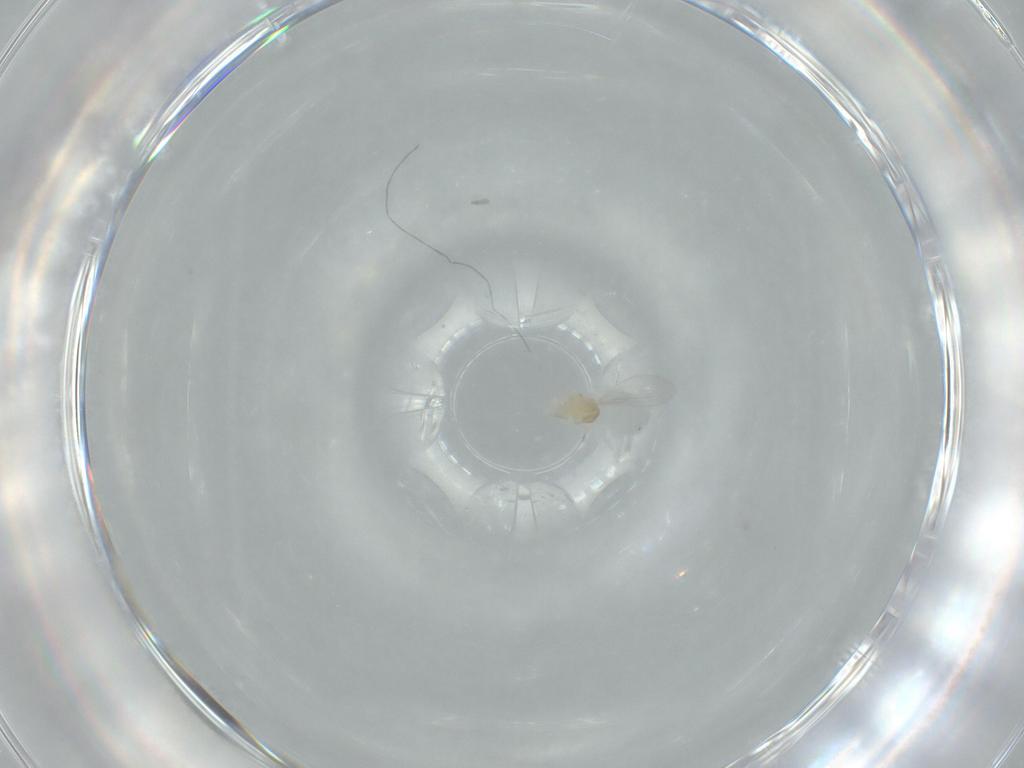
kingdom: Animalia
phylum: Arthropoda
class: Insecta
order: Diptera
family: Cecidomyiidae
